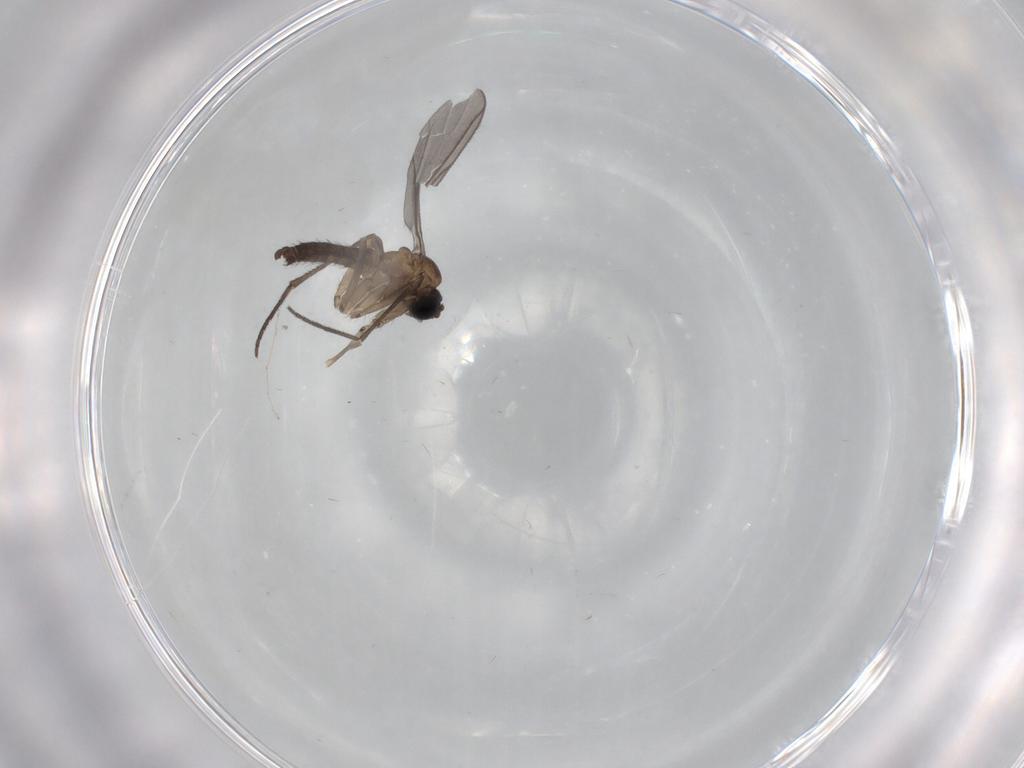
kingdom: Animalia
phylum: Arthropoda
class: Insecta
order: Diptera
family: Sciaridae
